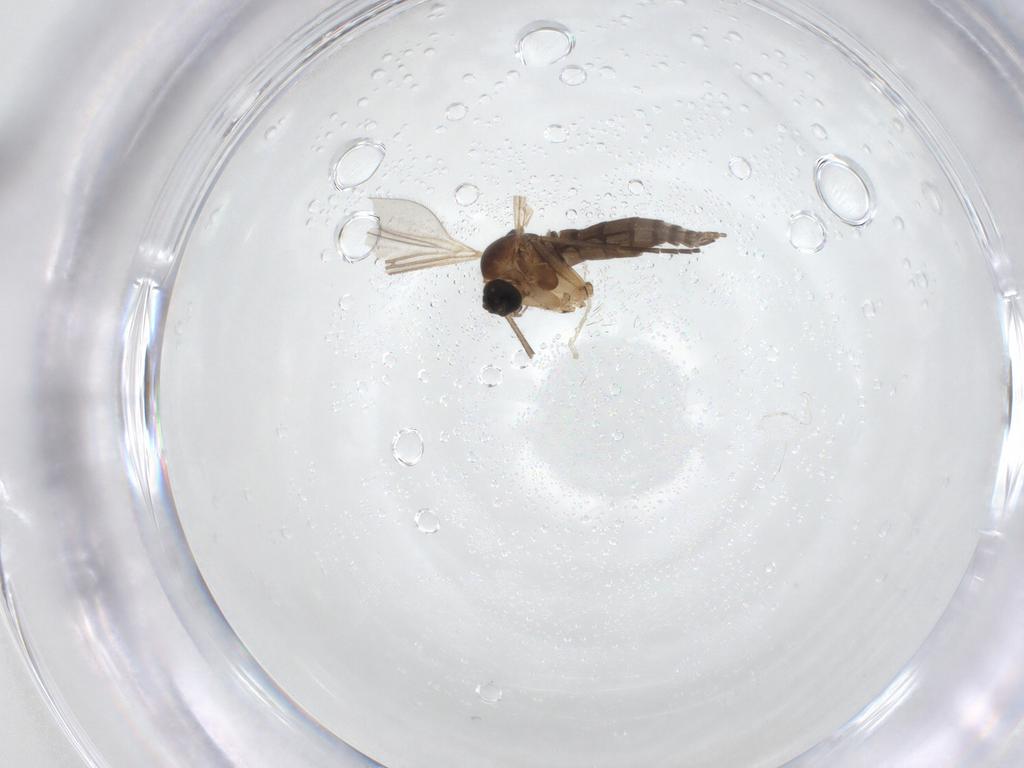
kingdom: Animalia
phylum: Arthropoda
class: Insecta
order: Diptera
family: Sciaridae
